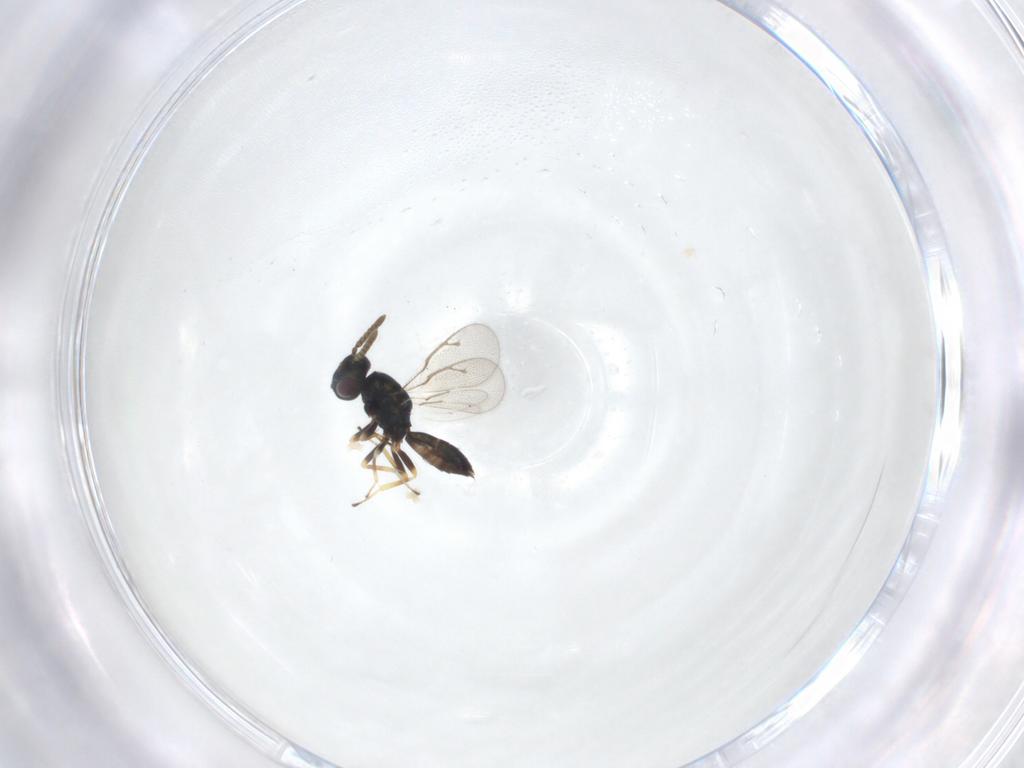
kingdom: Animalia
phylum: Arthropoda
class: Insecta
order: Hymenoptera
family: Pteromalidae
